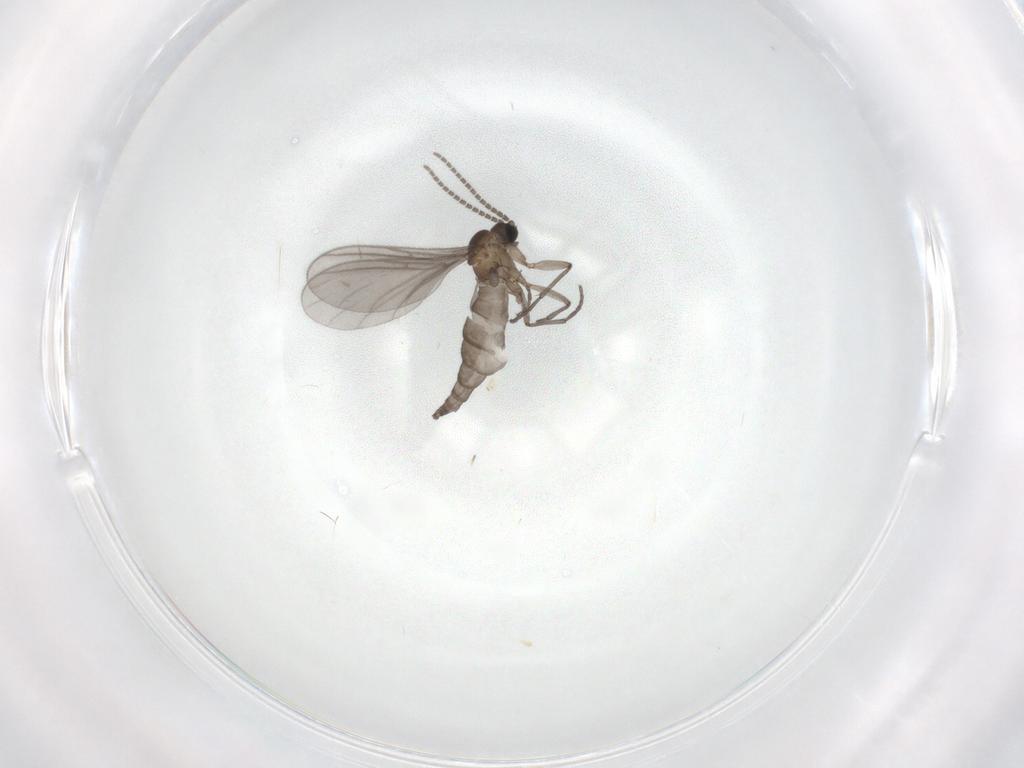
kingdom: Animalia
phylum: Arthropoda
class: Insecta
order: Diptera
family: Sciaridae
